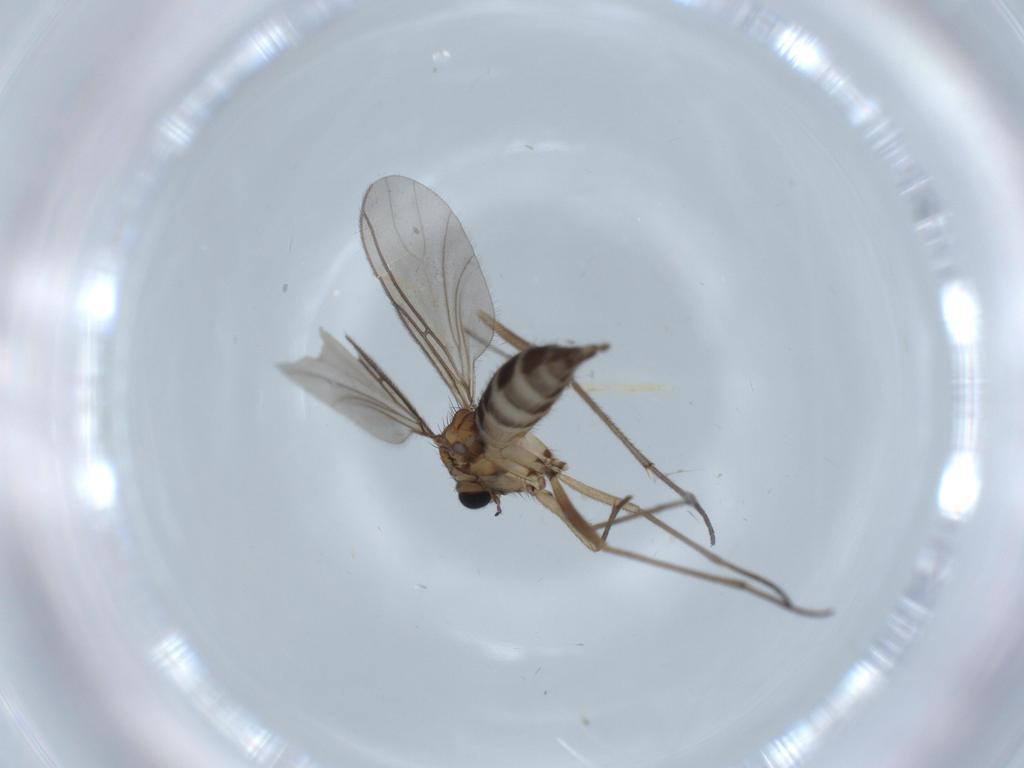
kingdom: Animalia
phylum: Arthropoda
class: Insecta
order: Diptera
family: Sciaridae
